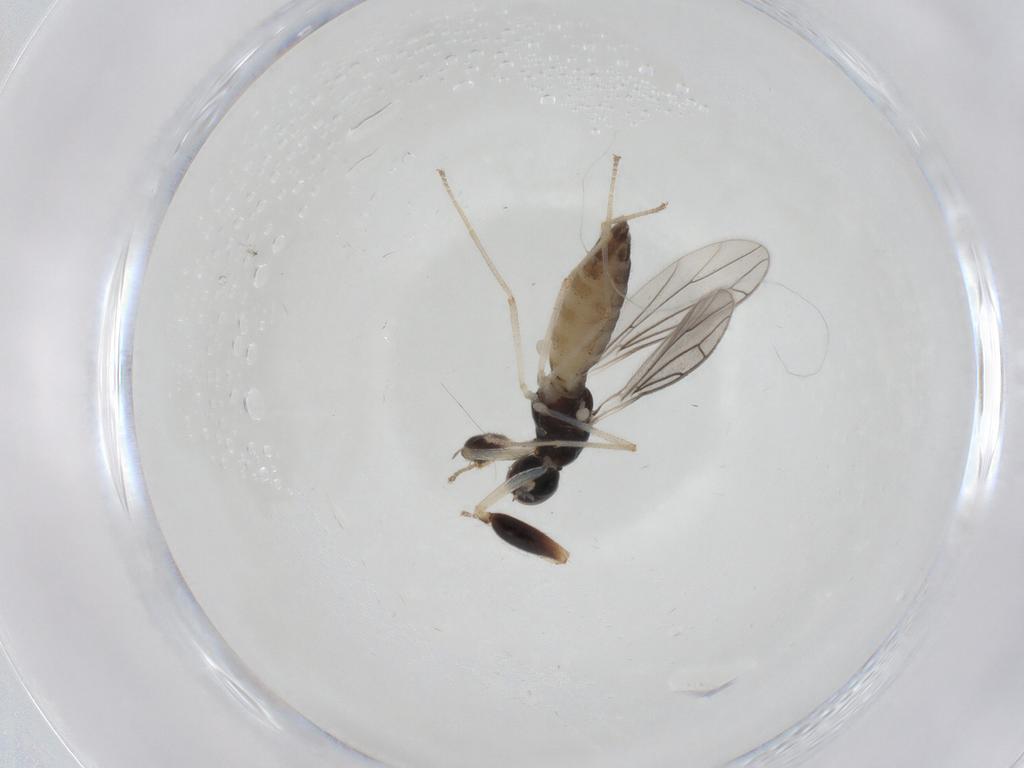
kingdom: Animalia
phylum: Arthropoda
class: Insecta
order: Diptera
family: Empididae
